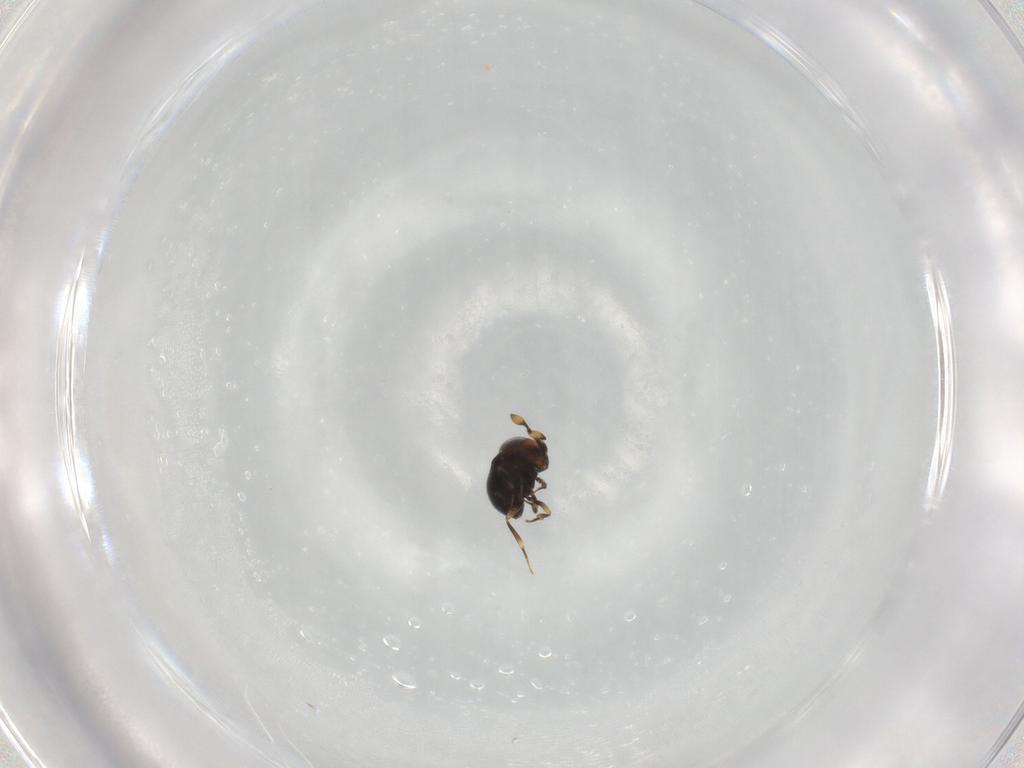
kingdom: Animalia
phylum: Arthropoda
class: Insecta
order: Hymenoptera
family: Scelionidae
